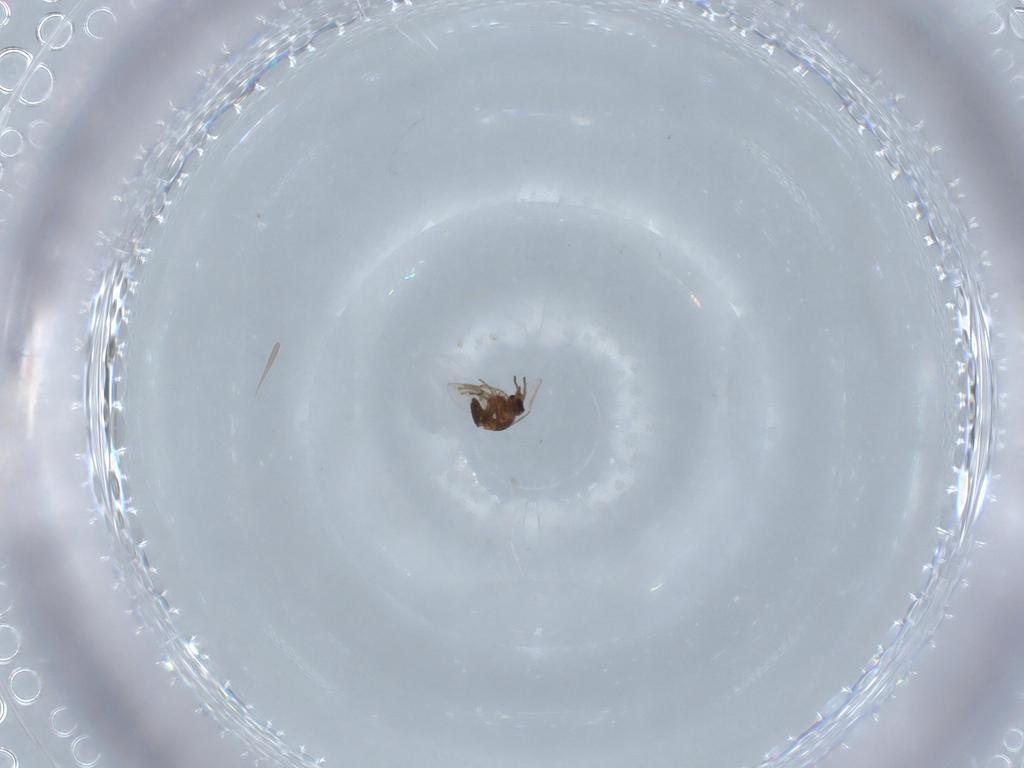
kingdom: Animalia
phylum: Arthropoda
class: Insecta
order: Diptera
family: Ceratopogonidae
